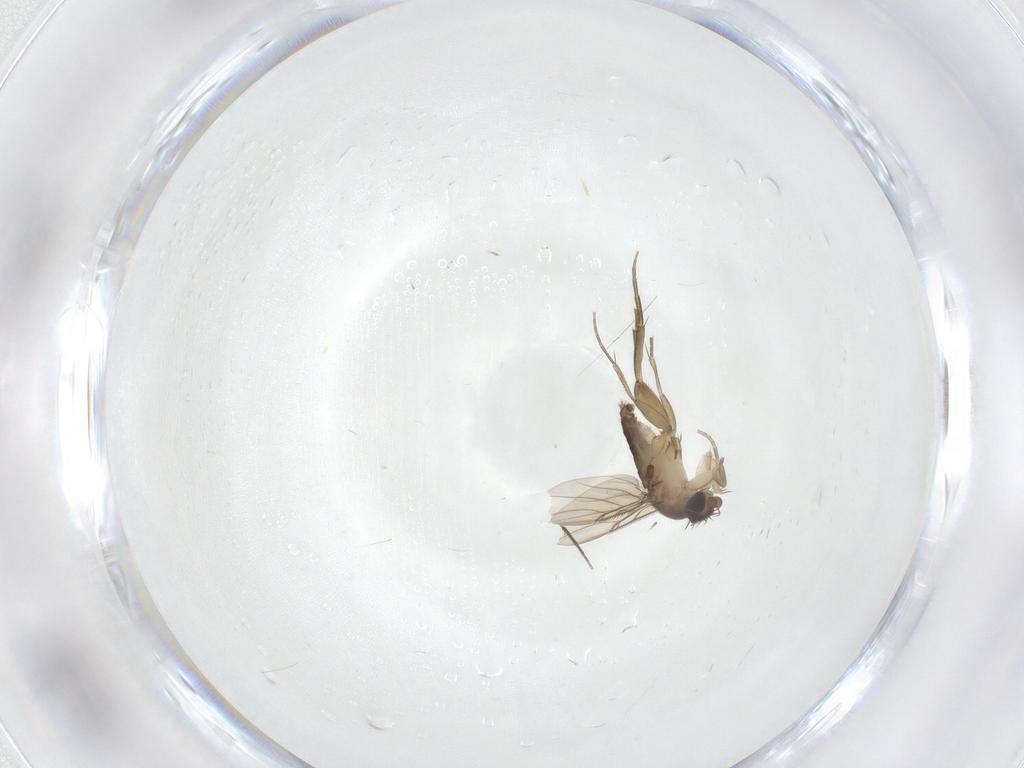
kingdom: Animalia
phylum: Arthropoda
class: Insecta
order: Diptera
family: Phoridae
